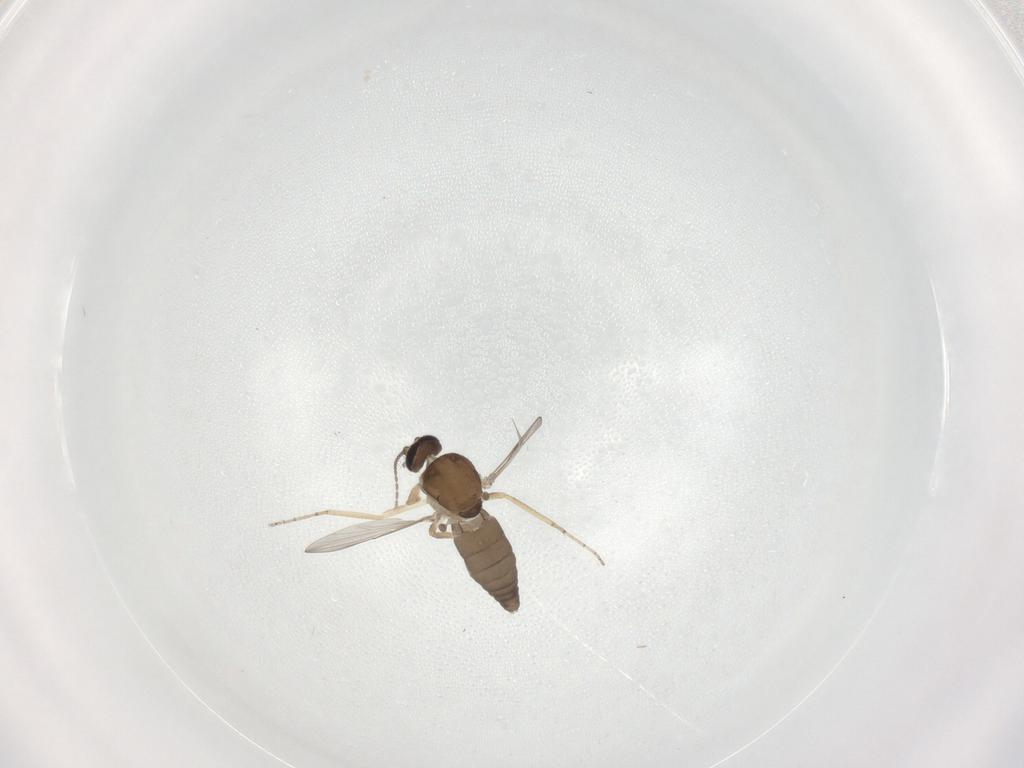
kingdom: Animalia
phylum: Arthropoda
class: Insecta
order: Diptera
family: Ceratopogonidae
